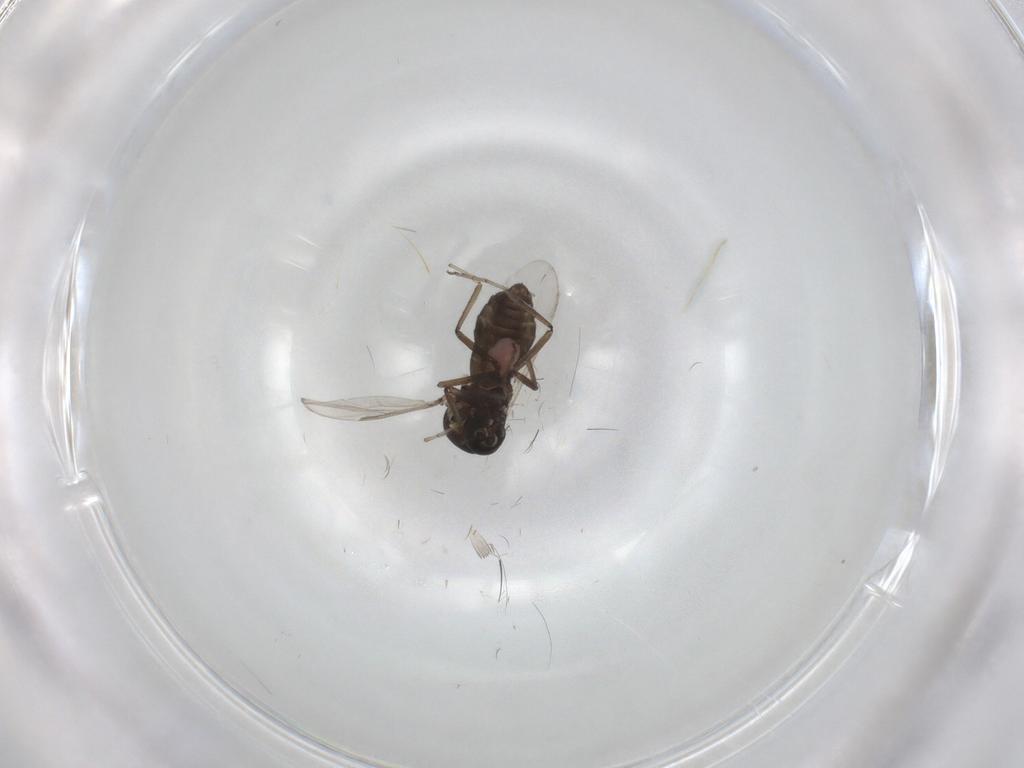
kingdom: Animalia
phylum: Arthropoda
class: Insecta
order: Diptera
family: Ceratopogonidae
